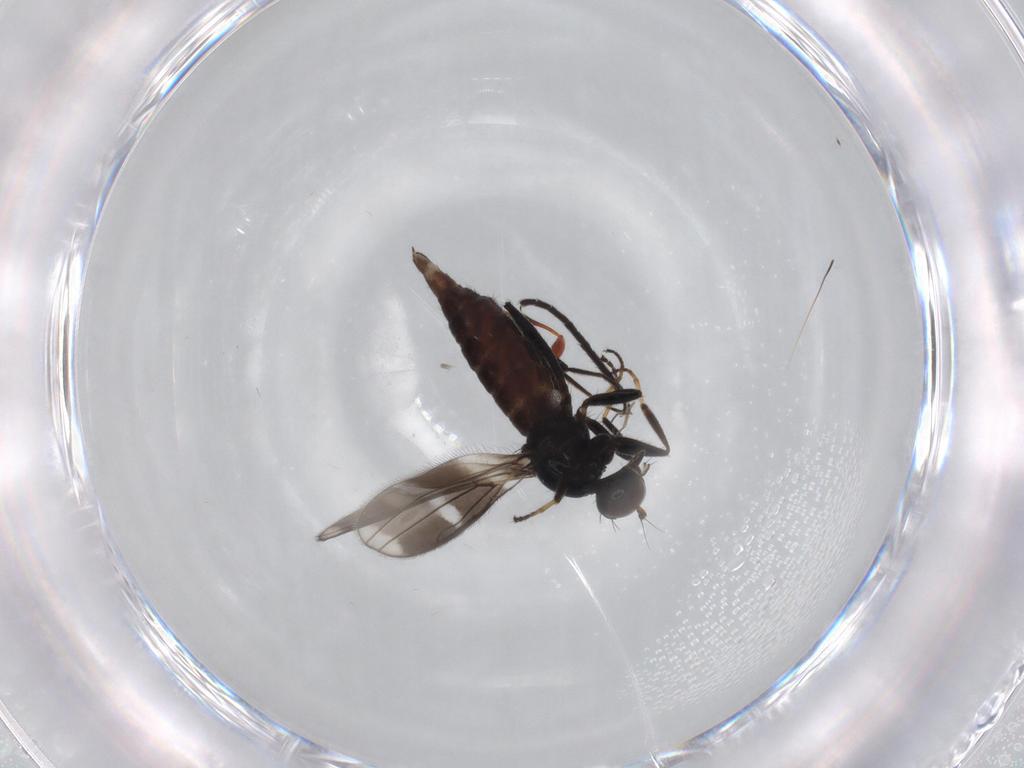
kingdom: Animalia
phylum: Arthropoda
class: Insecta
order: Diptera
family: Hybotidae
